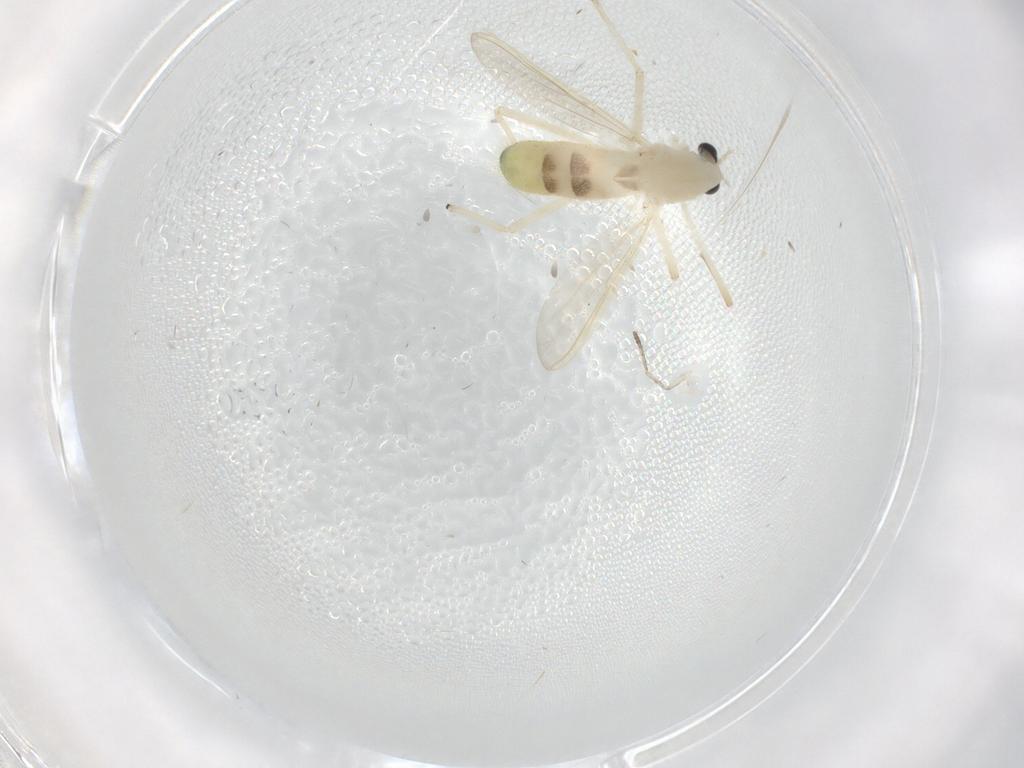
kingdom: Animalia
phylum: Arthropoda
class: Insecta
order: Diptera
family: Chironomidae
